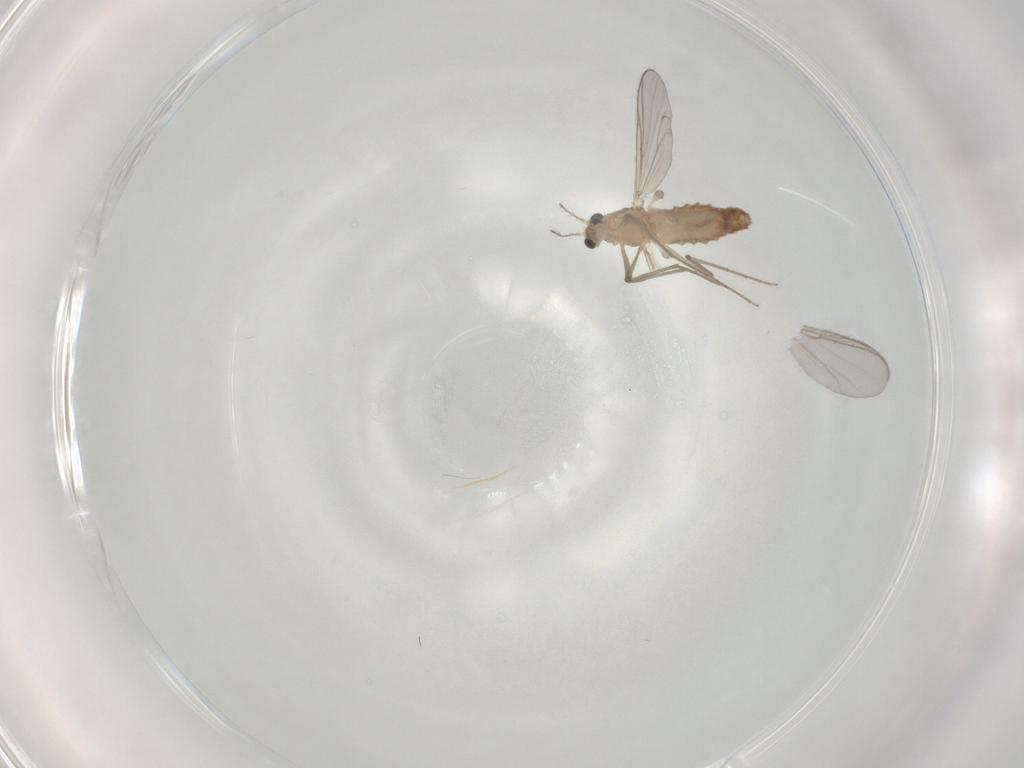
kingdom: Animalia
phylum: Arthropoda
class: Insecta
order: Diptera
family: Chironomidae
